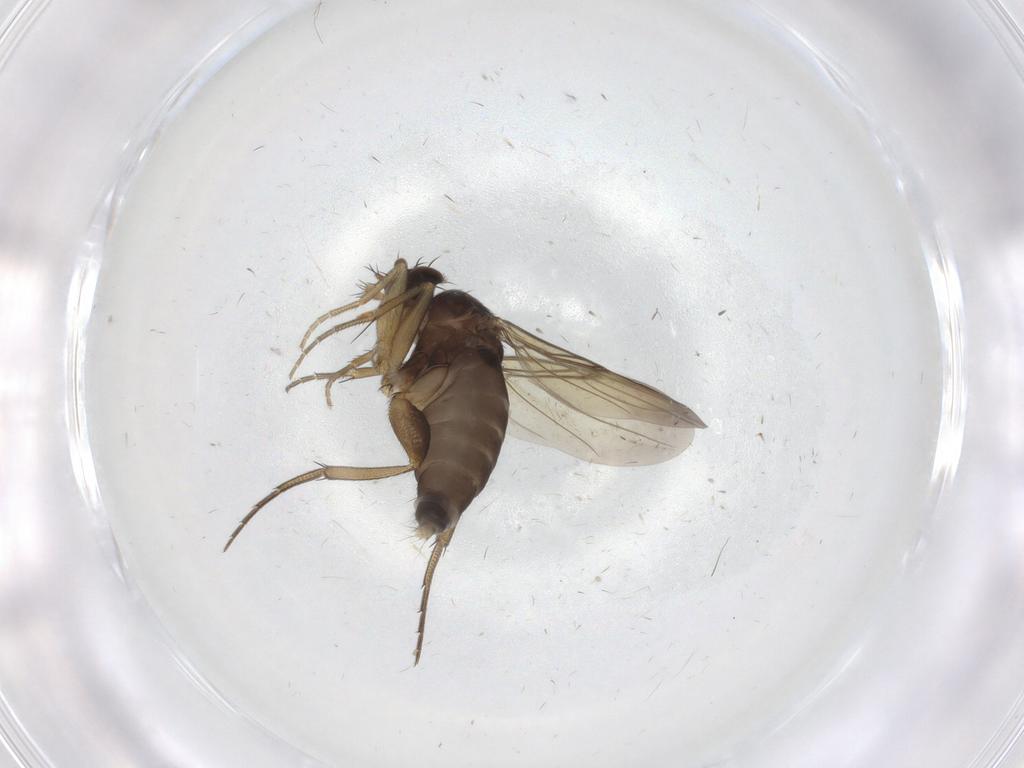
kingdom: Animalia
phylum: Arthropoda
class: Insecta
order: Diptera
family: Phoridae
